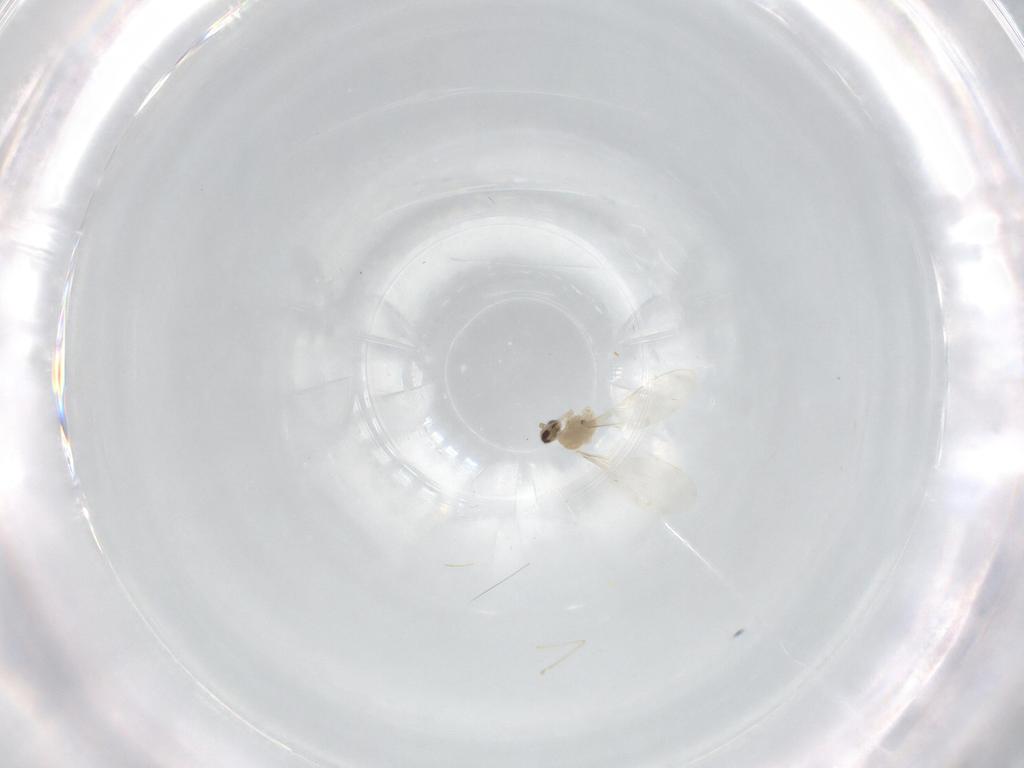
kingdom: Animalia
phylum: Arthropoda
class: Insecta
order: Diptera
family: Cecidomyiidae
